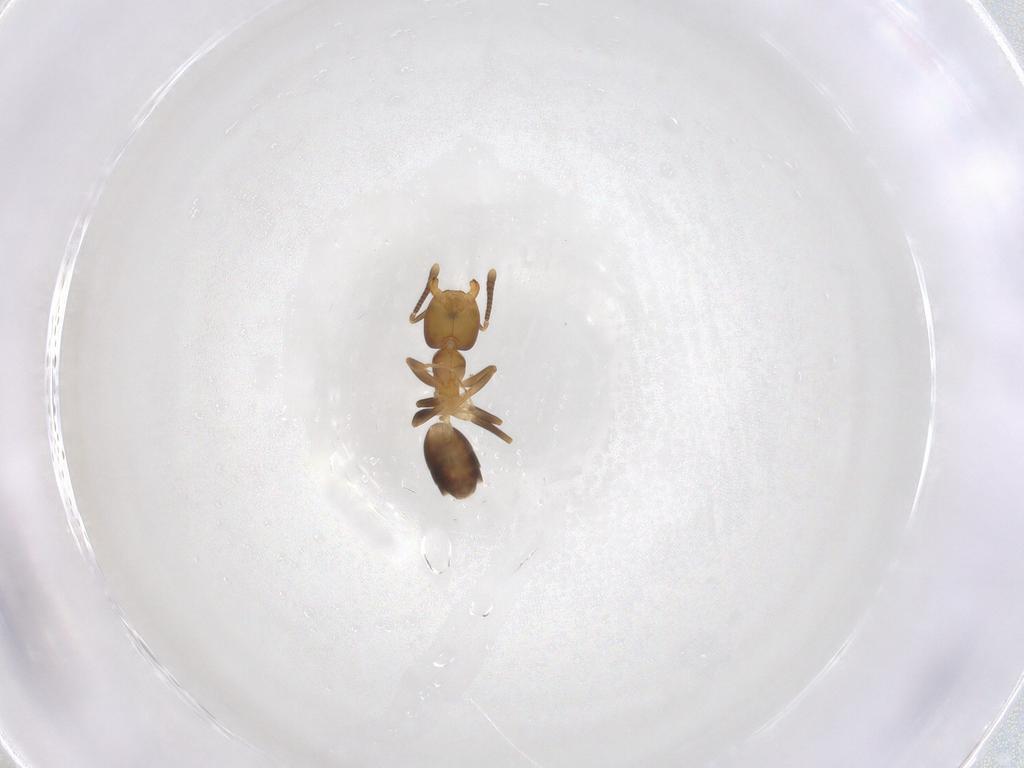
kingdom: Animalia
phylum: Arthropoda
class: Insecta
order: Hymenoptera
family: Formicidae
